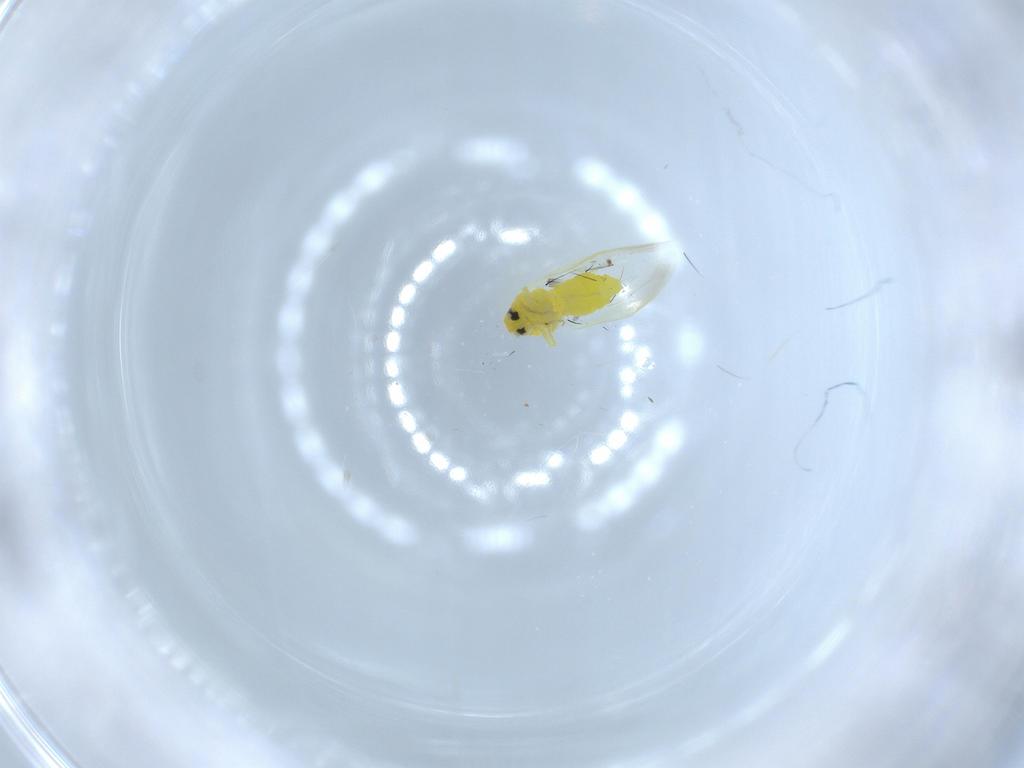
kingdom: Animalia
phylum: Arthropoda
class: Insecta
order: Hemiptera
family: Aleyrodidae
